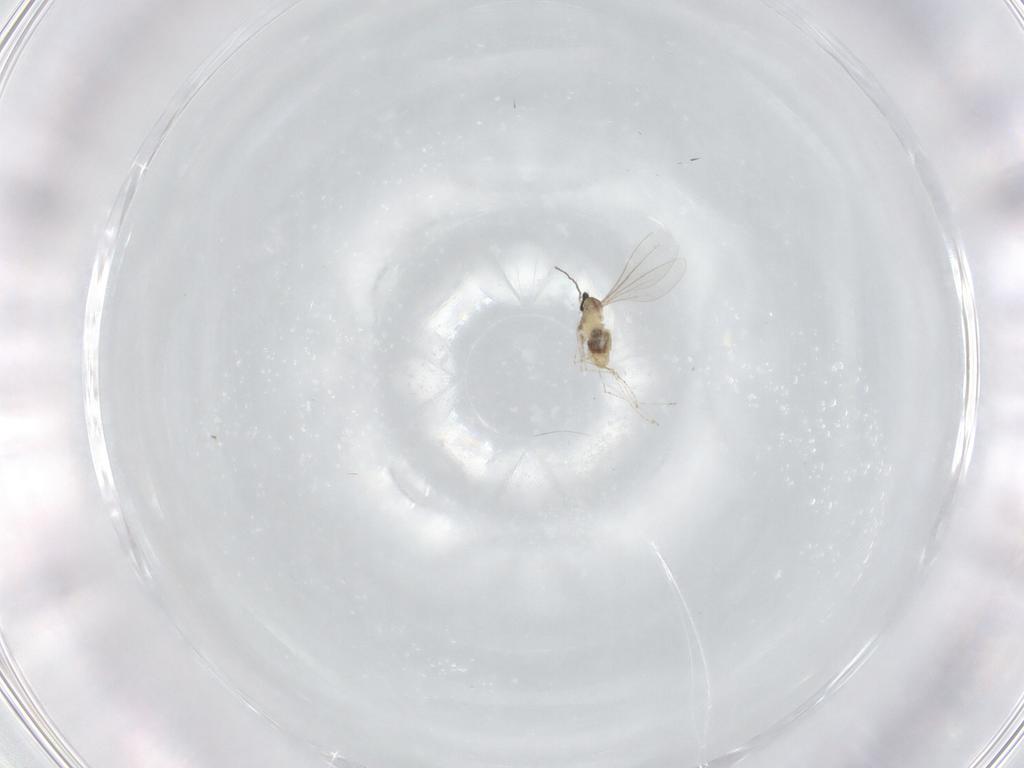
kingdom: Animalia
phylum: Arthropoda
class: Insecta
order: Diptera
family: Cecidomyiidae
